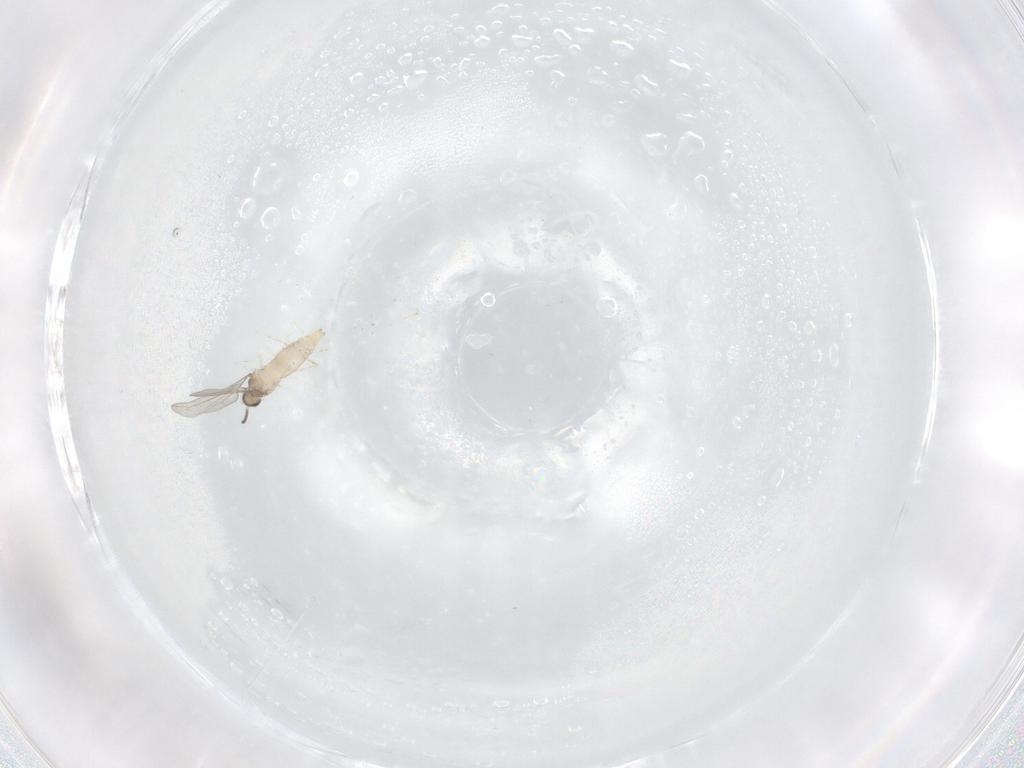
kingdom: Animalia
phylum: Arthropoda
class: Insecta
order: Diptera
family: Cecidomyiidae
